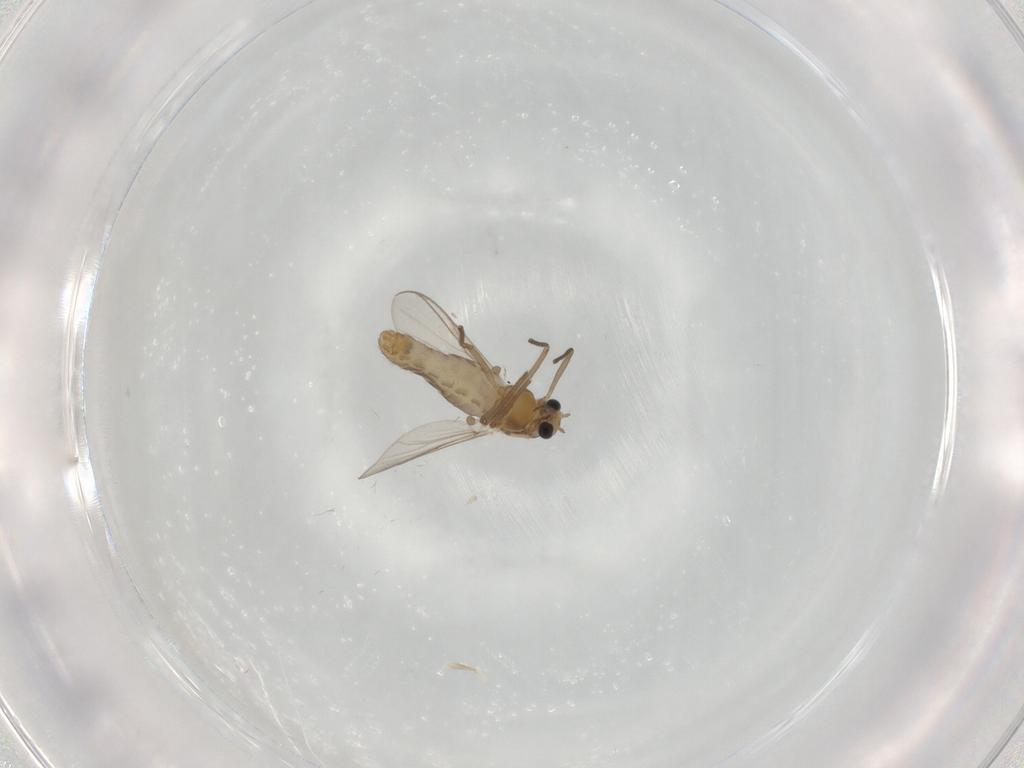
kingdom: Animalia
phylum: Arthropoda
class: Insecta
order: Diptera
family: Chironomidae
